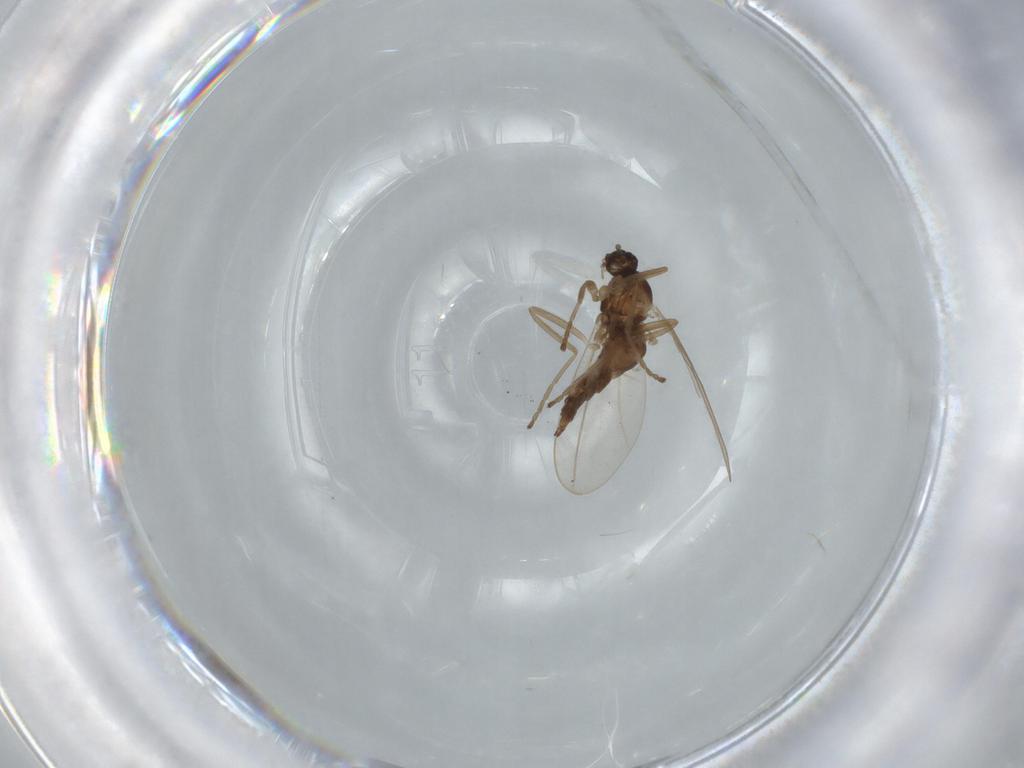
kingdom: Animalia
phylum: Arthropoda
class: Insecta
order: Diptera
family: Cecidomyiidae
